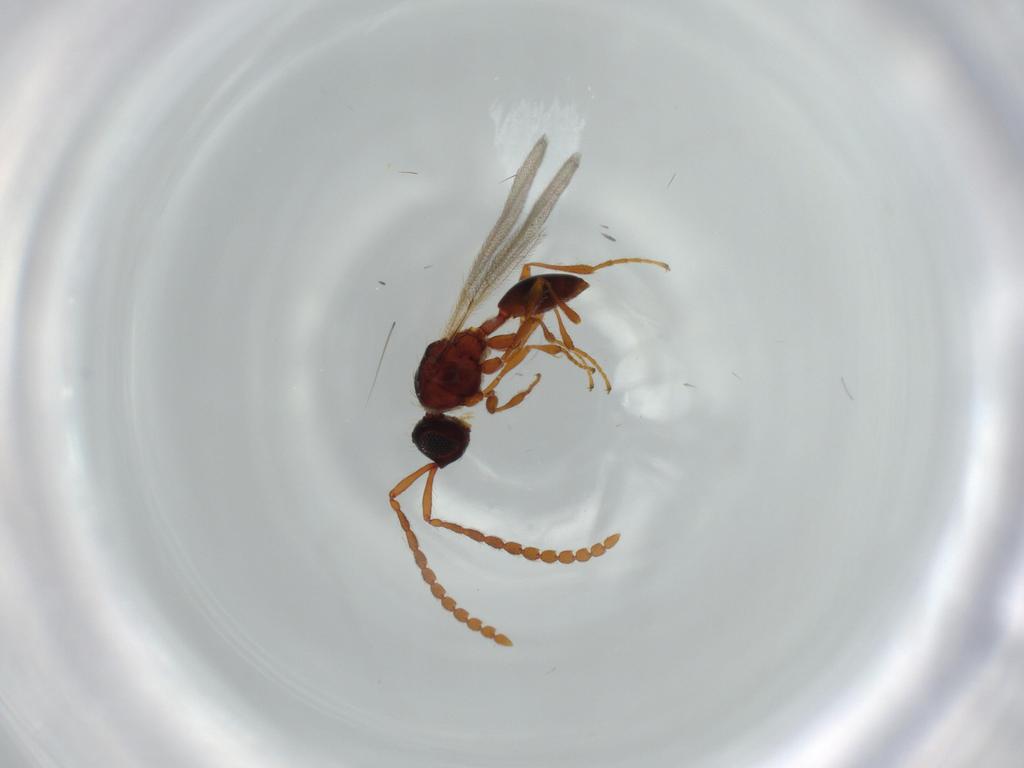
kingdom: Animalia
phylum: Arthropoda
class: Insecta
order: Hymenoptera
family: Diapriidae
